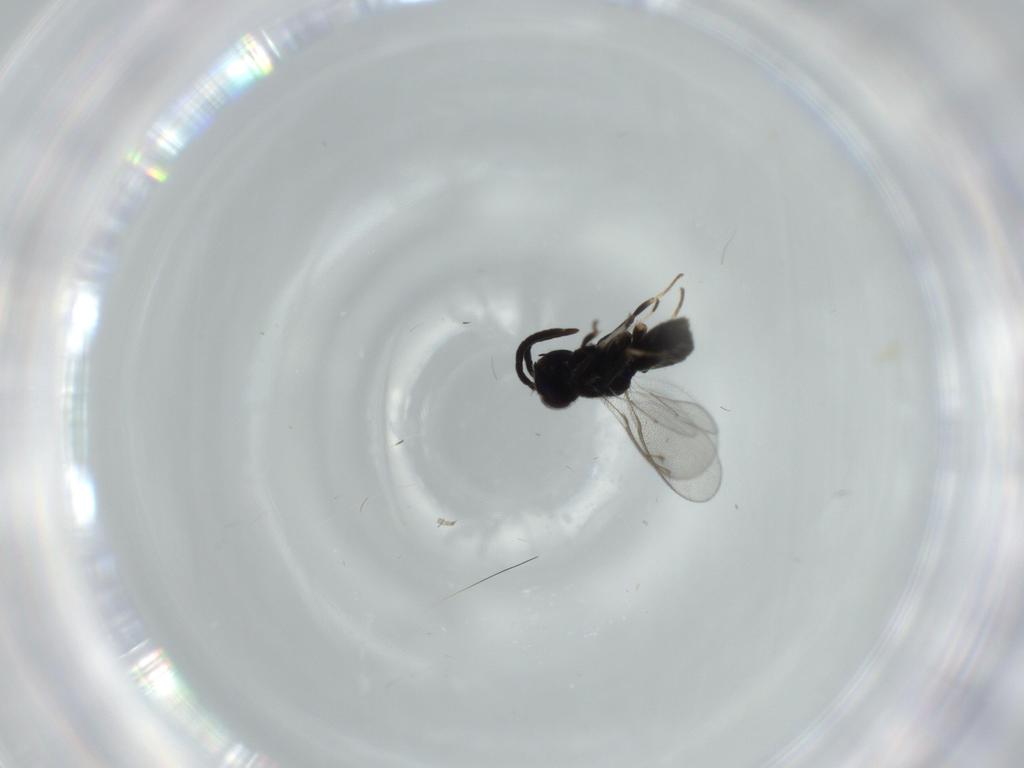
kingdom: Animalia
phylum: Arthropoda
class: Insecta
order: Hymenoptera
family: Eupelmidae
